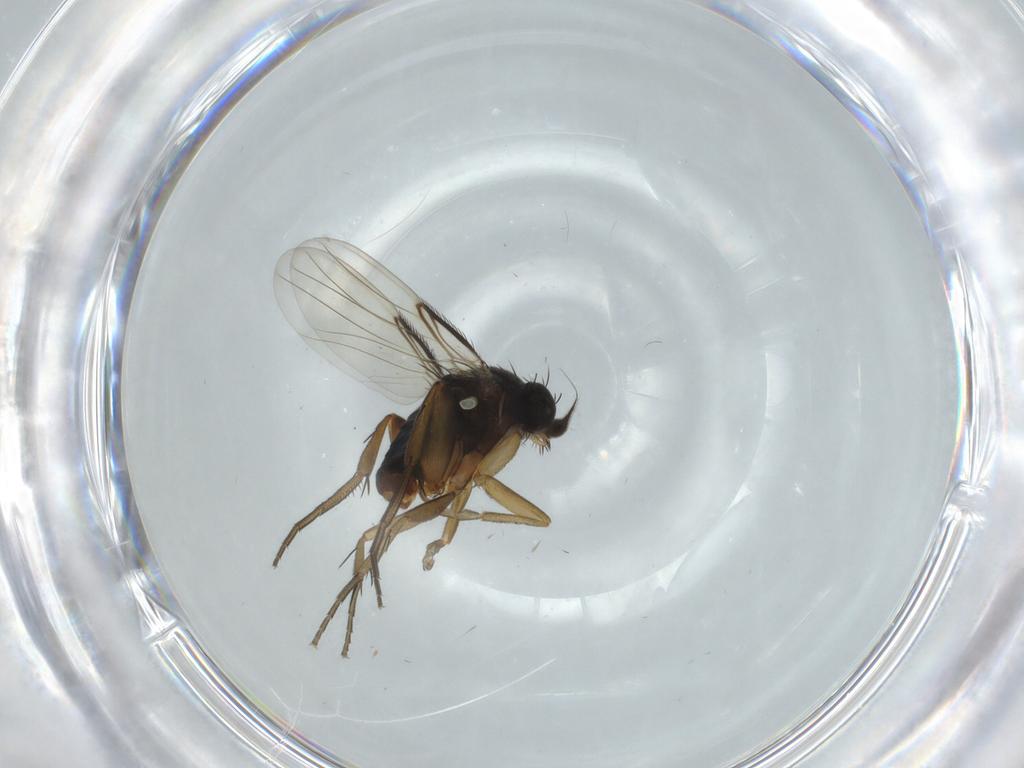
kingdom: Animalia
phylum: Arthropoda
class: Insecta
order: Diptera
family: Phoridae
